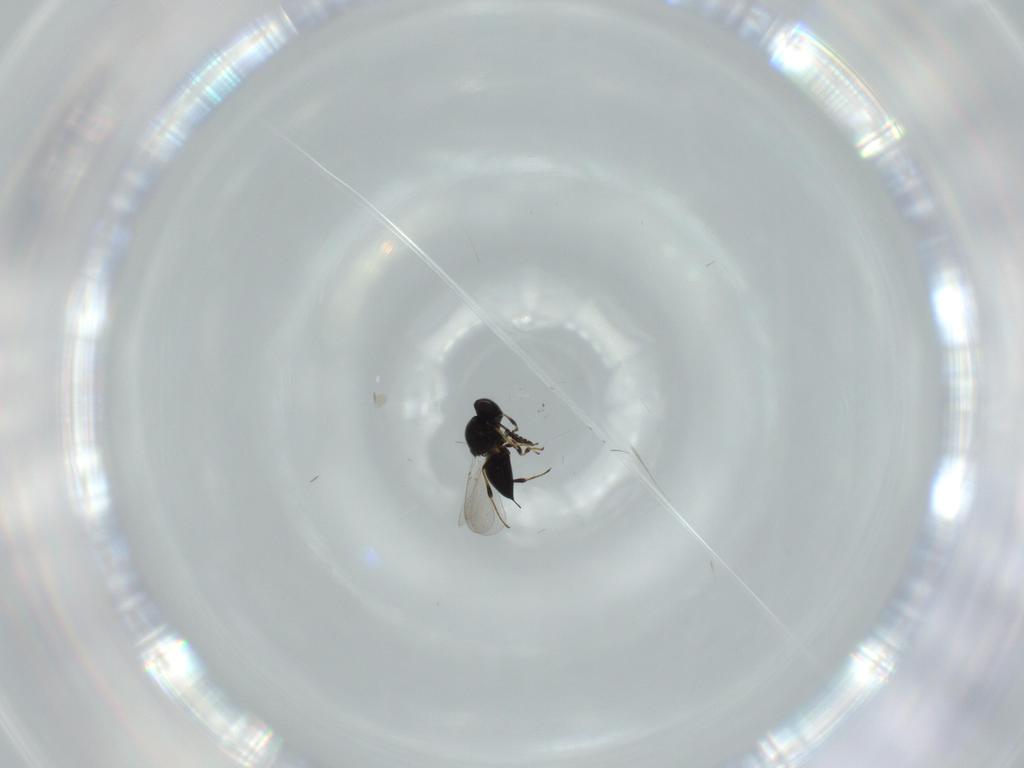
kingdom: Animalia
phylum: Arthropoda
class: Insecta
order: Hymenoptera
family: Platygastridae
